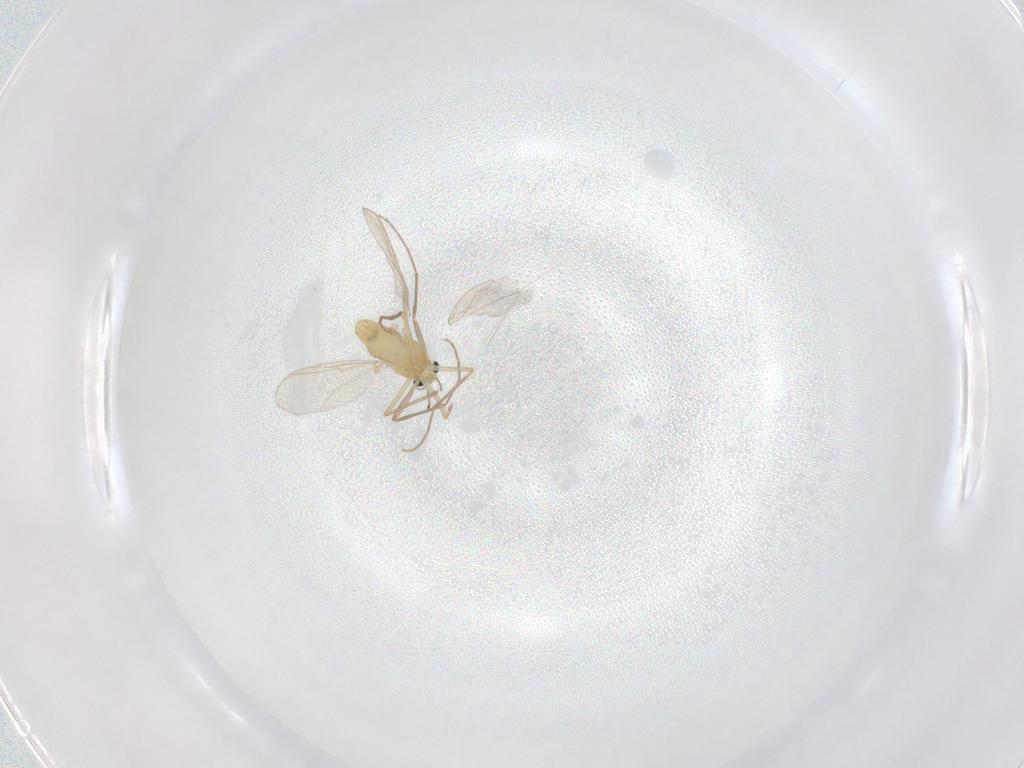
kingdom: Animalia
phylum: Arthropoda
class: Insecta
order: Diptera
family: Chironomidae
